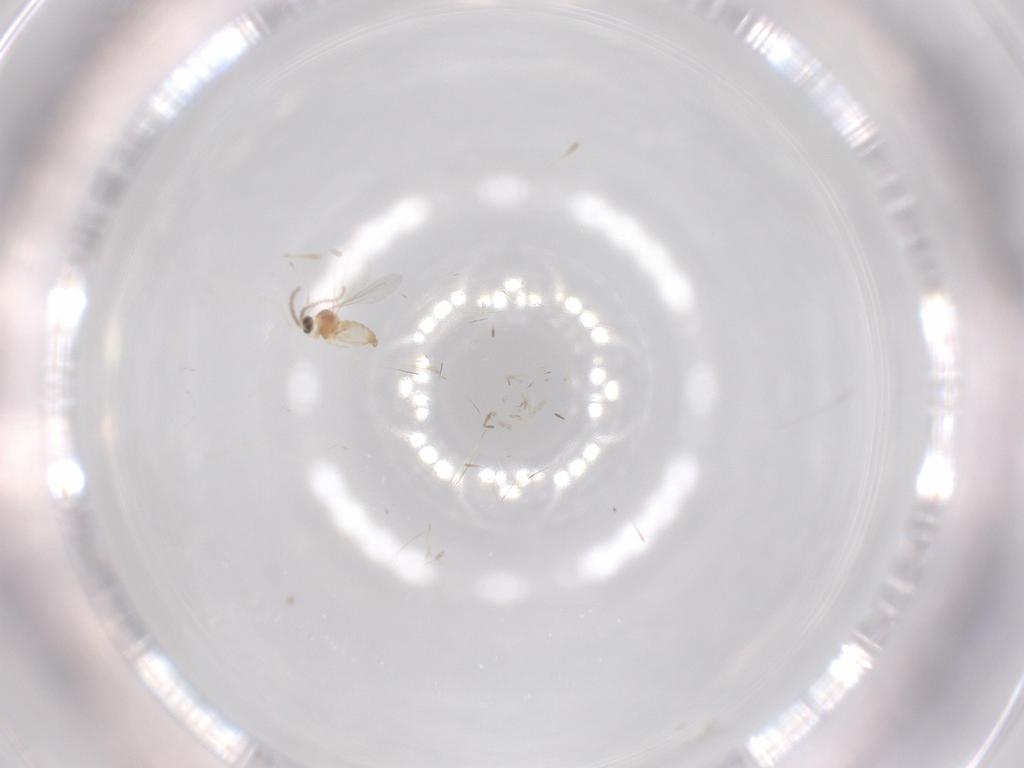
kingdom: Animalia
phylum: Arthropoda
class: Insecta
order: Diptera
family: Cecidomyiidae
